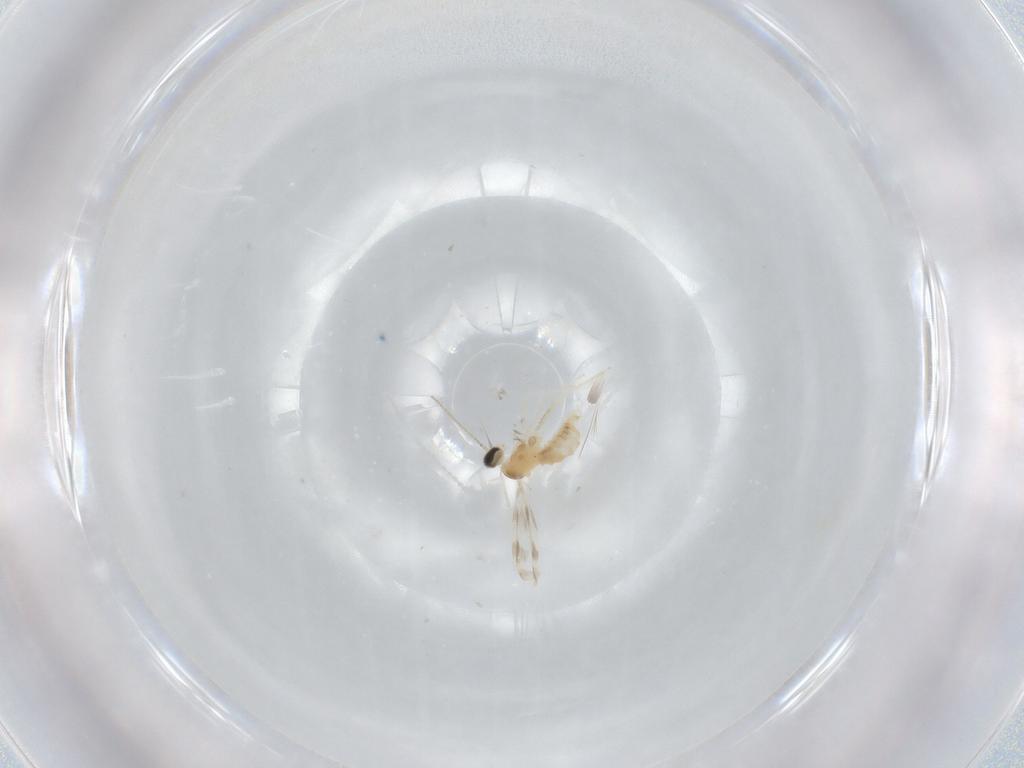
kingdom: Animalia
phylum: Arthropoda
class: Insecta
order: Diptera
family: Cecidomyiidae
